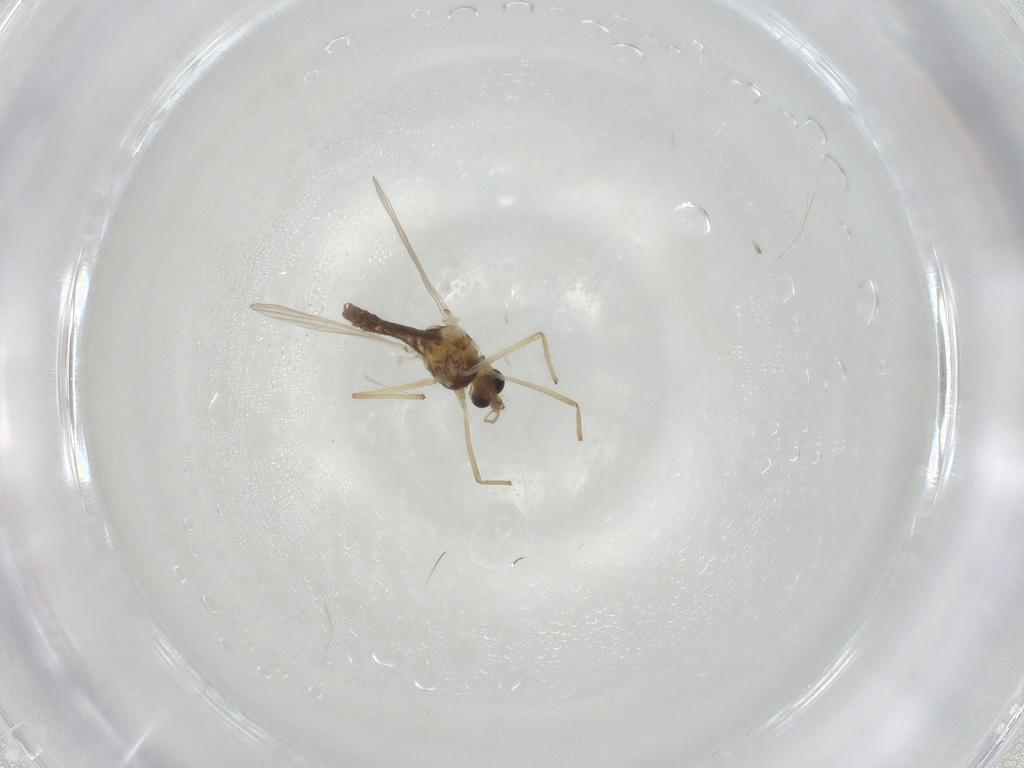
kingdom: Animalia
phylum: Arthropoda
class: Insecta
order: Diptera
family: Chironomidae
